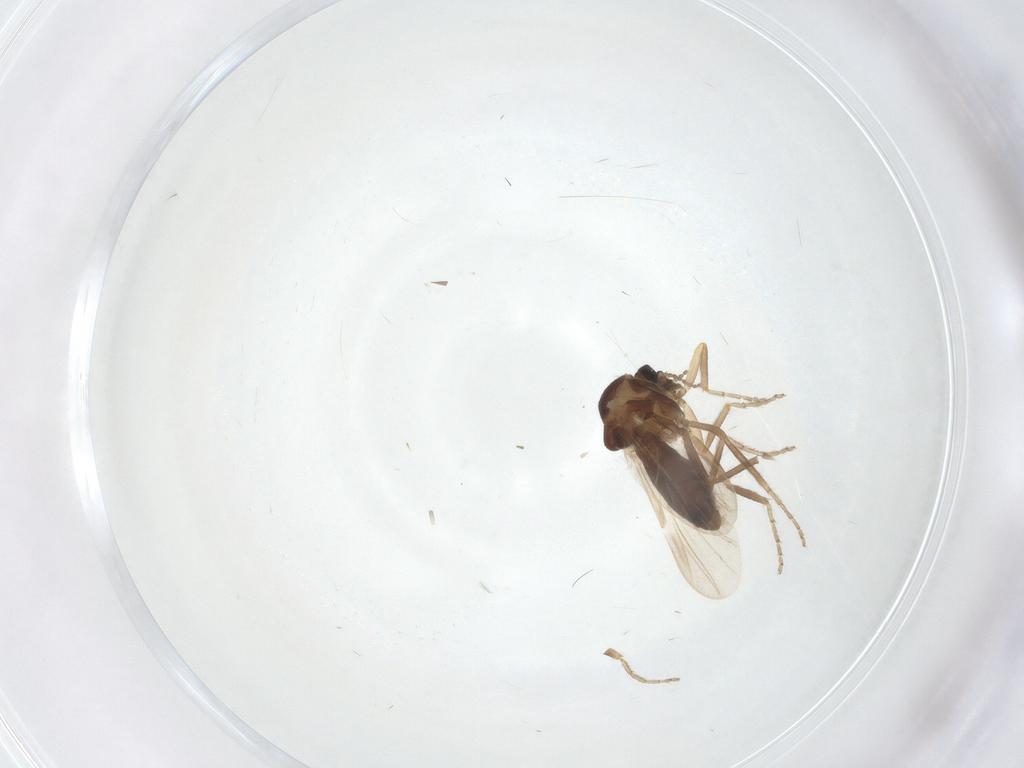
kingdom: Animalia
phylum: Arthropoda
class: Insecta
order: Diptera
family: Ceratopogonidae
